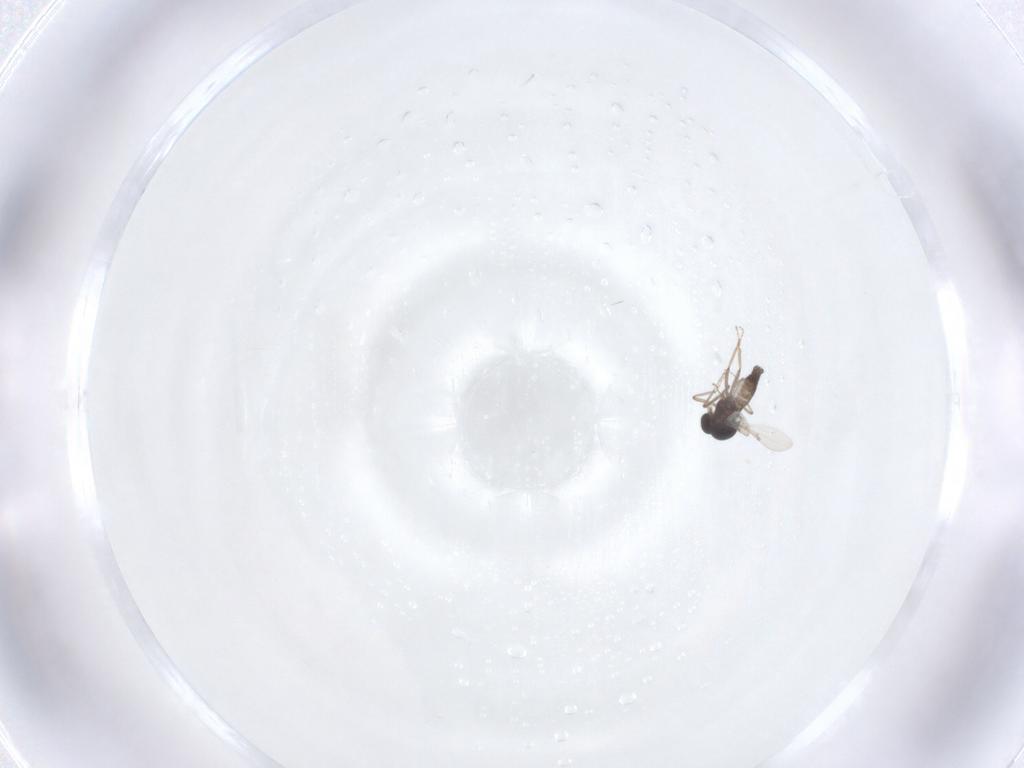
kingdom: Animalia
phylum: Arthropoda
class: Insecta
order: Diptera
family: Ceratopogonidae
